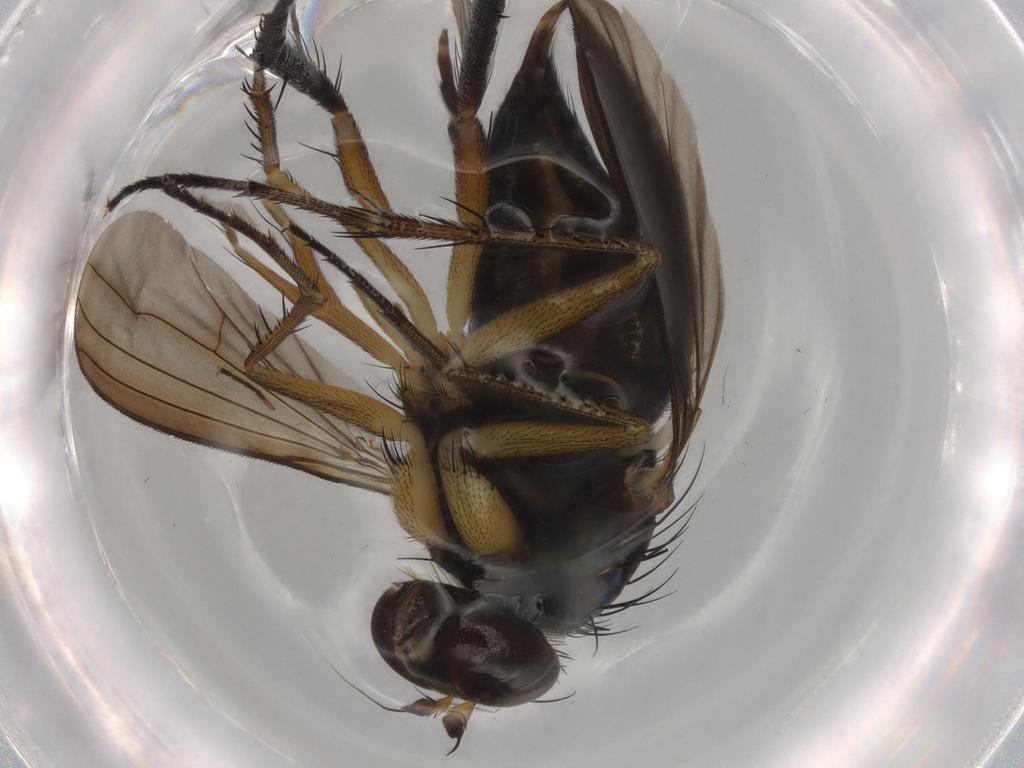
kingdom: Animalia
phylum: Arthropoda
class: Insecta
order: Diptera
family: Dolichopodidae
